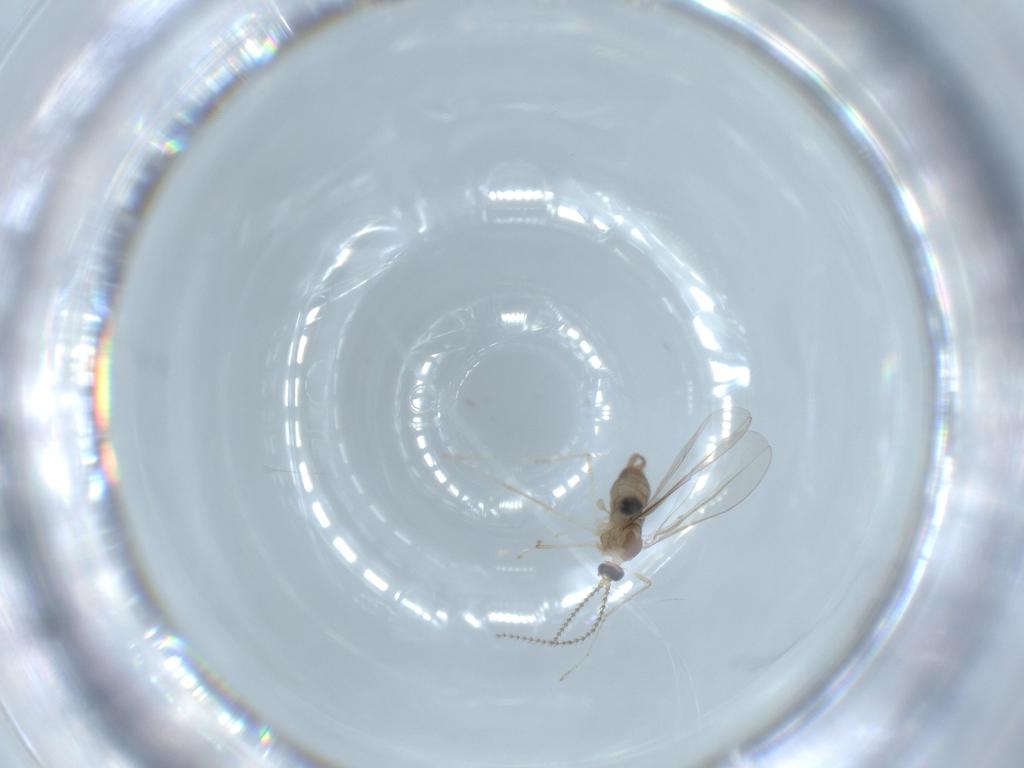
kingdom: Animalia
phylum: Arthropoda
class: Insecta
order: Diptera
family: Cecidomyiidae
